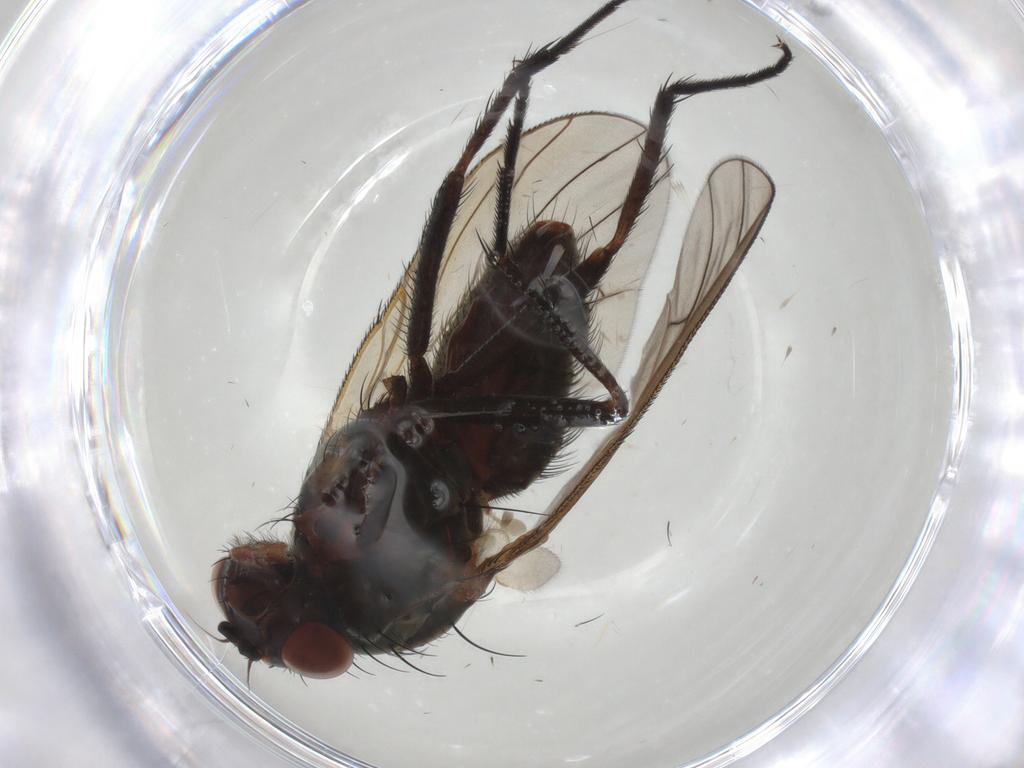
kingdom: Animalia
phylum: Arthropoda
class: Insecta
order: Diptera
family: Anthomyiidae
